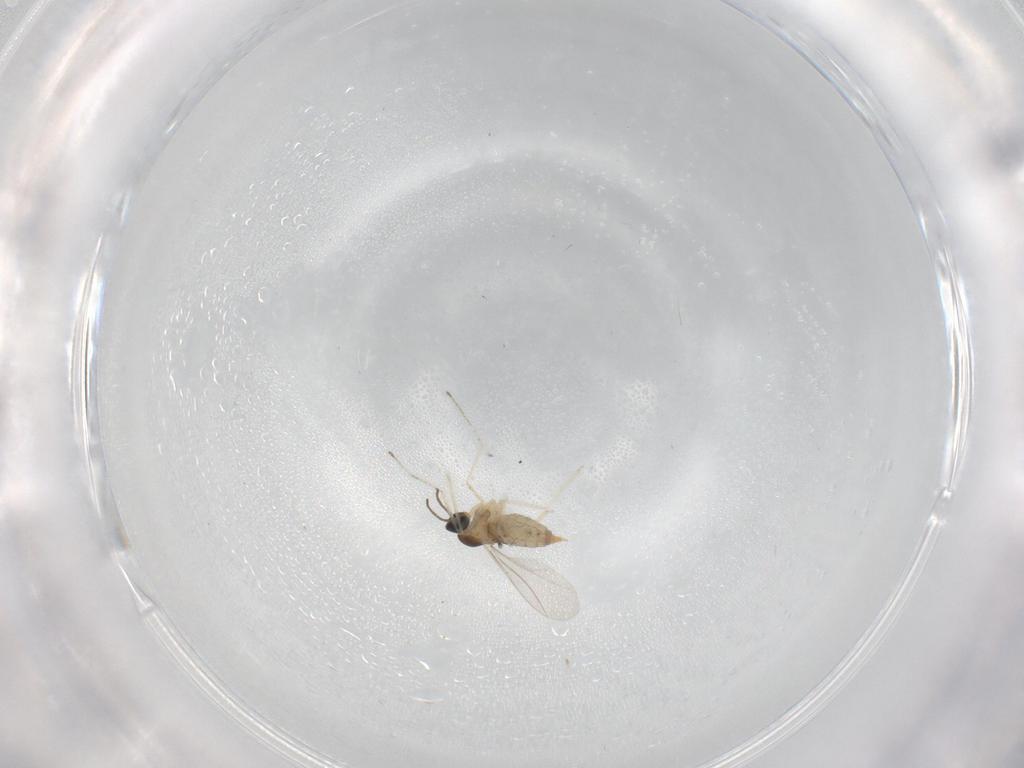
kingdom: Animalia
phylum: Arthropoda
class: Insecta
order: Diptera
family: Cecidomyiidae
